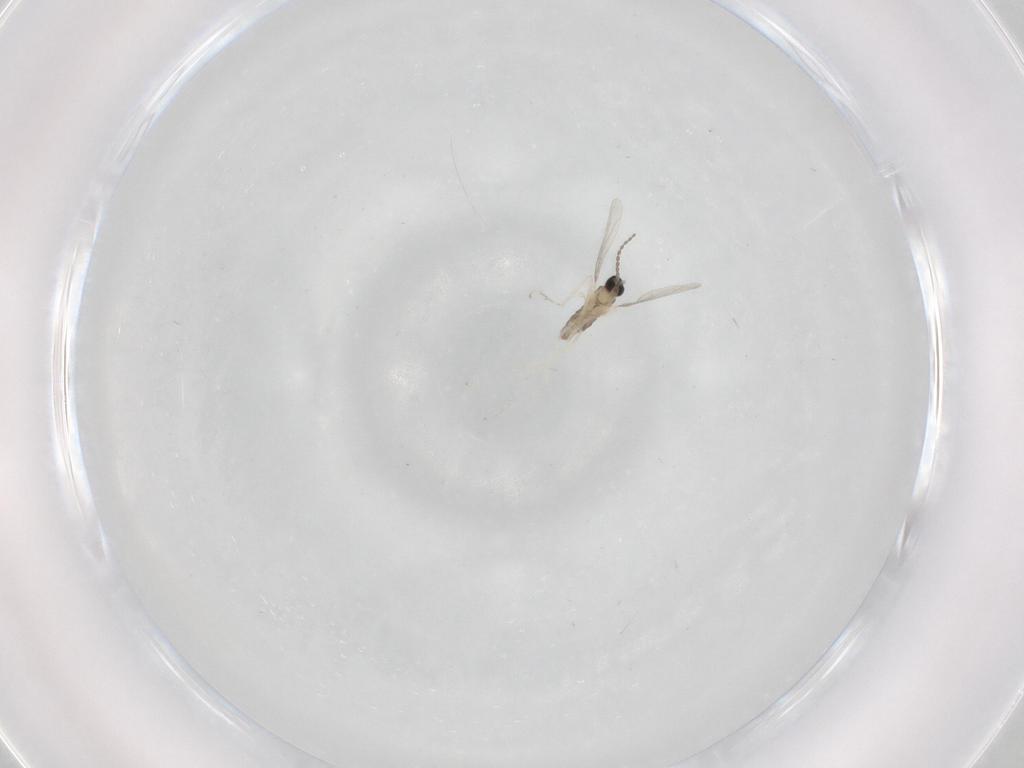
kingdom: Animalia
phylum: Arthropoda
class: Insecta
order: Diptera
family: Cecidomyiidae
